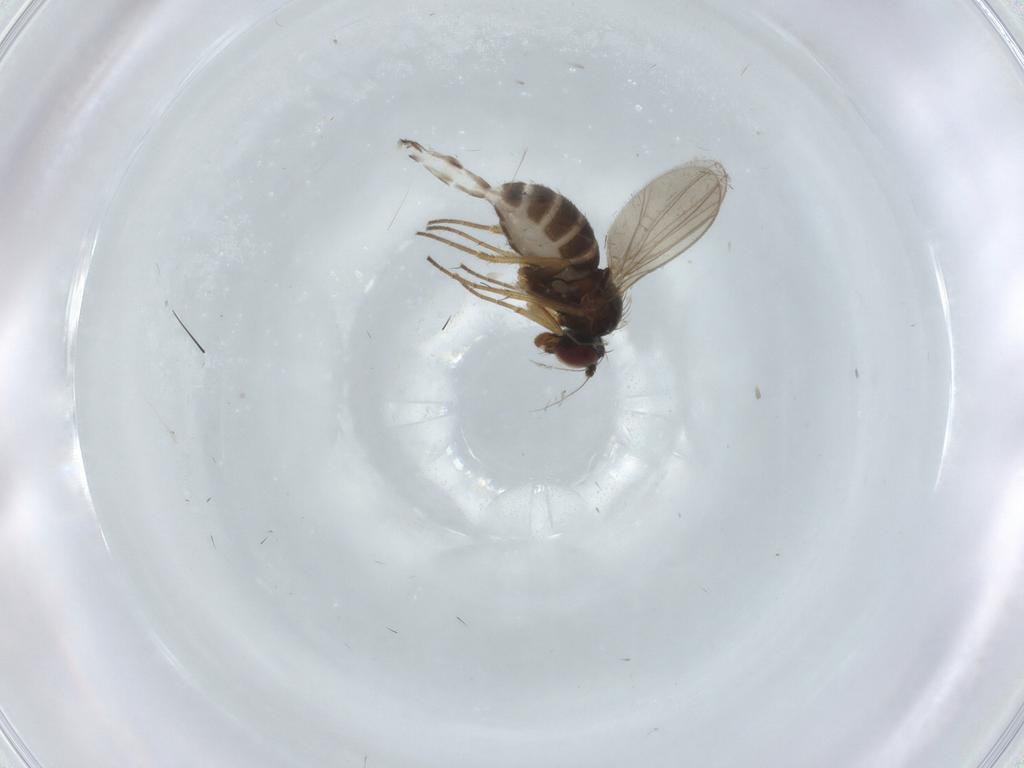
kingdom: Animalia
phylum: Arthropoda
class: Insecta
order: Diptera
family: Dolichopodidae
